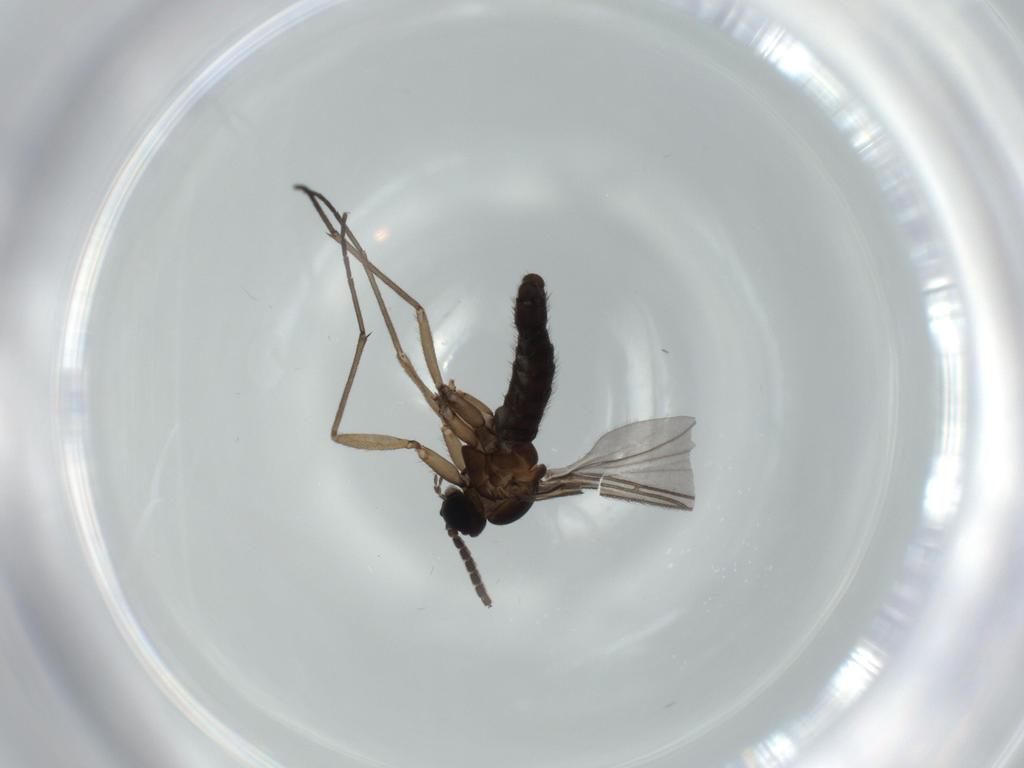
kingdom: Animalia
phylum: Arthropoda
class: Insecta
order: Diptera
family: Sciaridae
